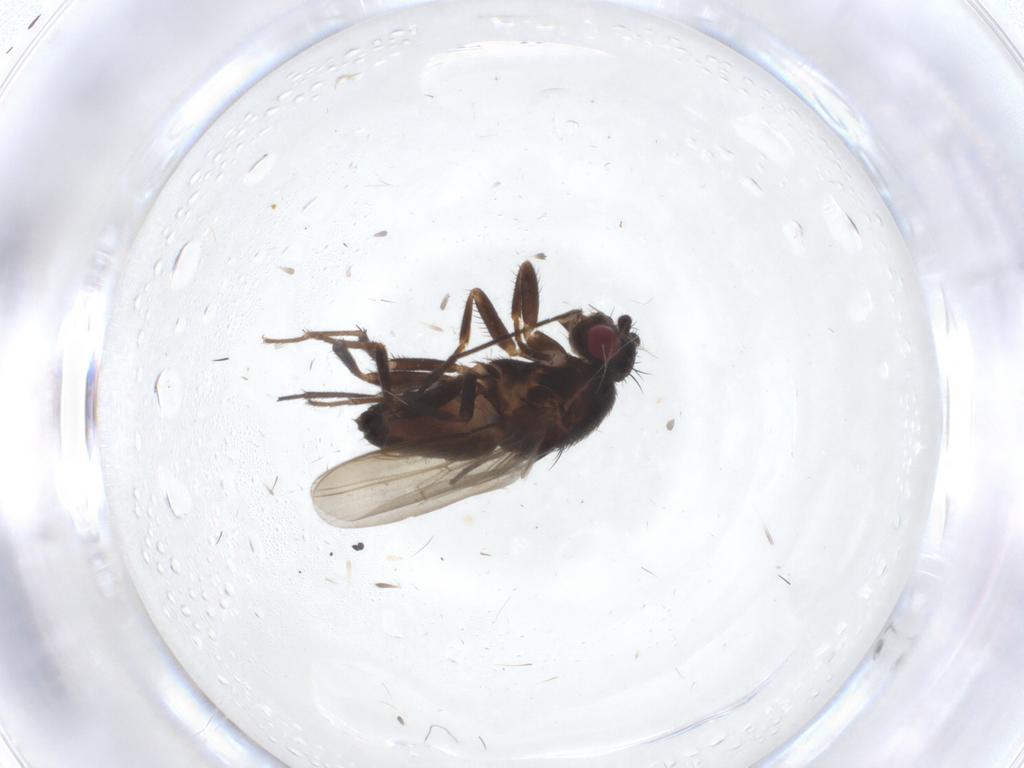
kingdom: Animalia
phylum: Arthropoda
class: Insecta
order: Diptera
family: Sphaeroceridae
